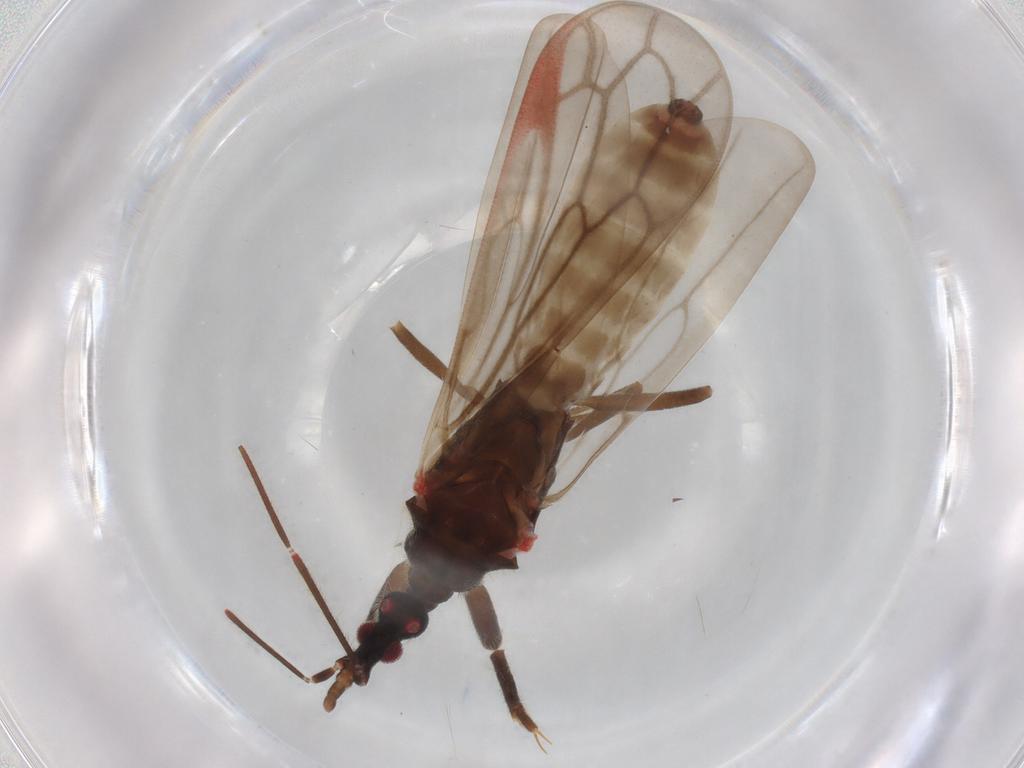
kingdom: Animalia
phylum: Arthropoda
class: Insecta
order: Hemiptera
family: Enicocephalidae
